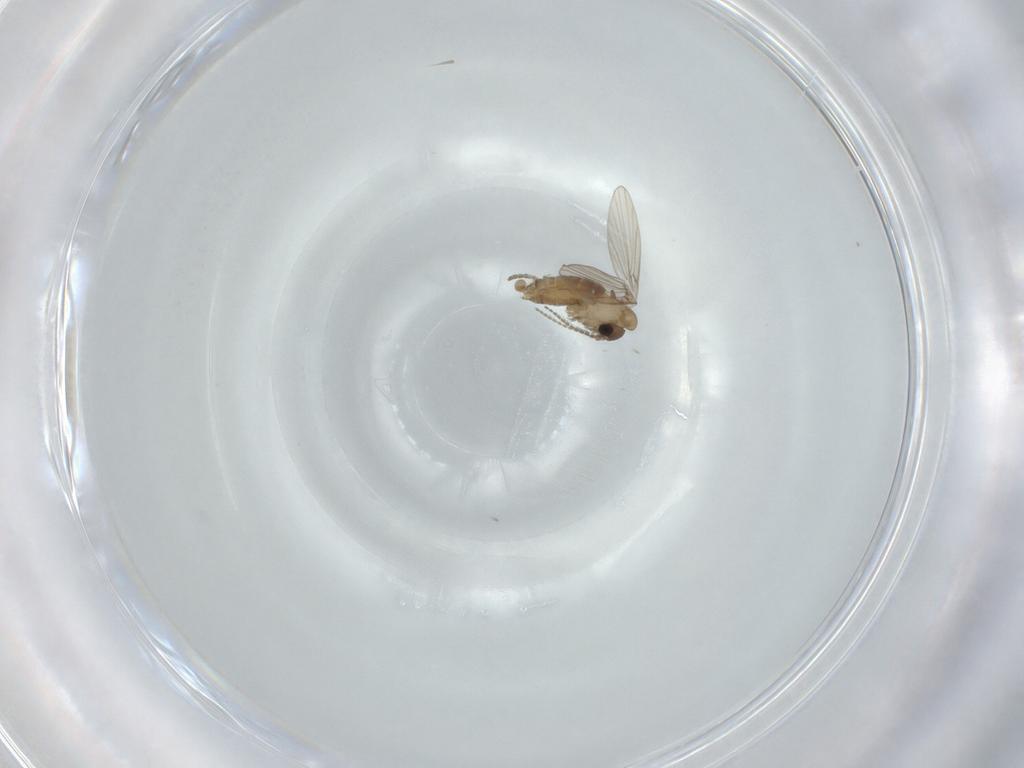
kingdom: Animalia
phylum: Arthropoda
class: Insecta
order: Diptera
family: Psychodidae
